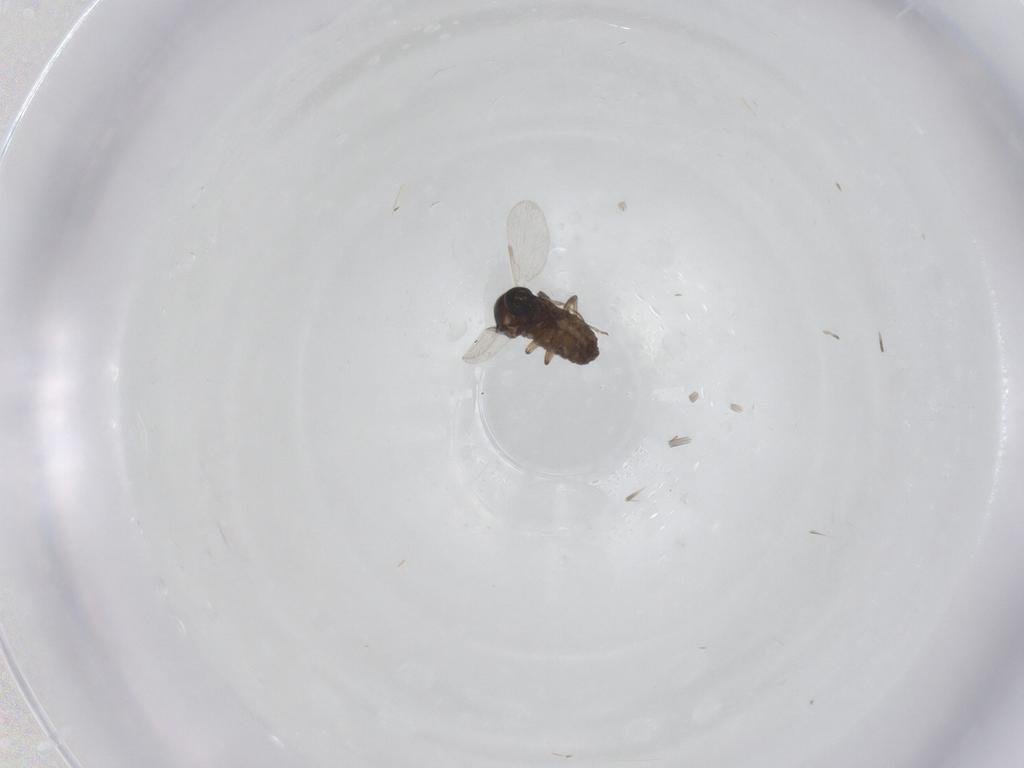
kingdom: Animalia
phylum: Arthropoda
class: Insecta
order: Diptera
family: Ceratopogonidae
